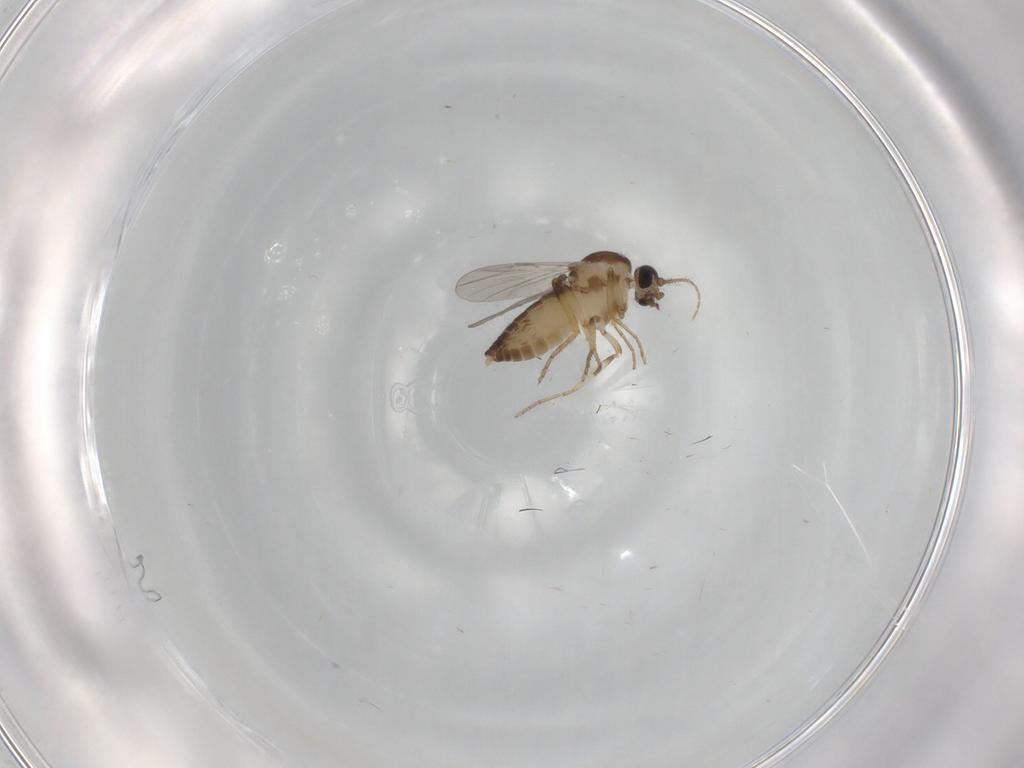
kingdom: Animalia
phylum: Arthropoda
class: Insecta
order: Diptera
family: Ceratopogonidae
